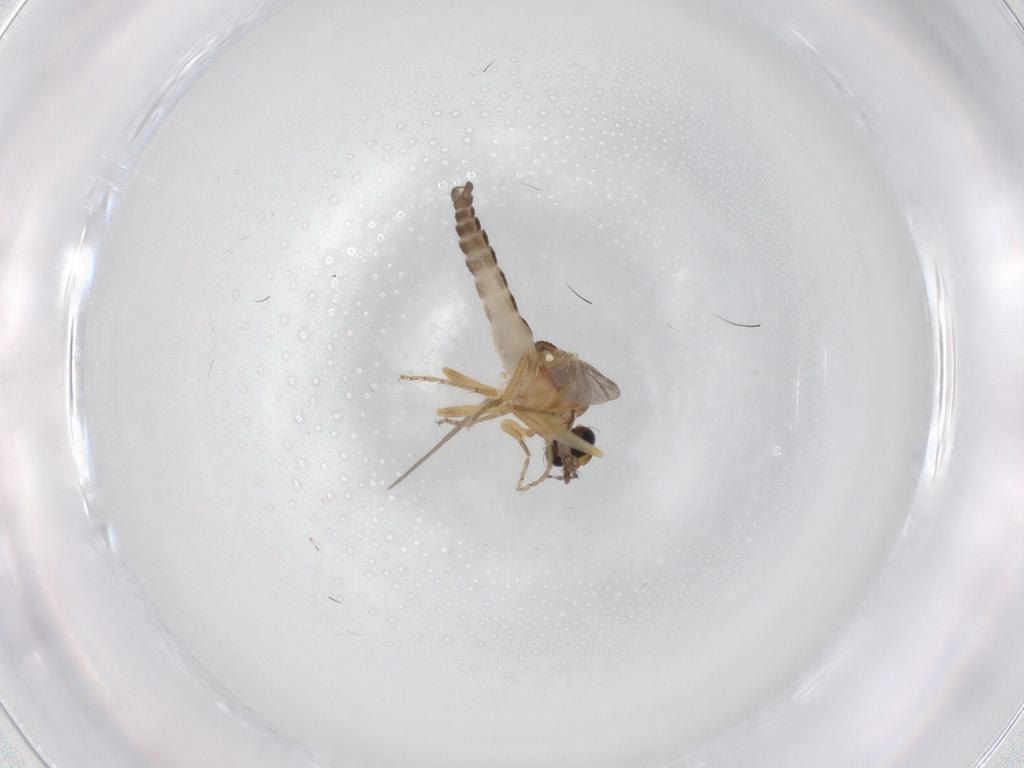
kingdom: Animalia
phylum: Arthropoda
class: Insecta
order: Diptera
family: Ceratopogonidae
